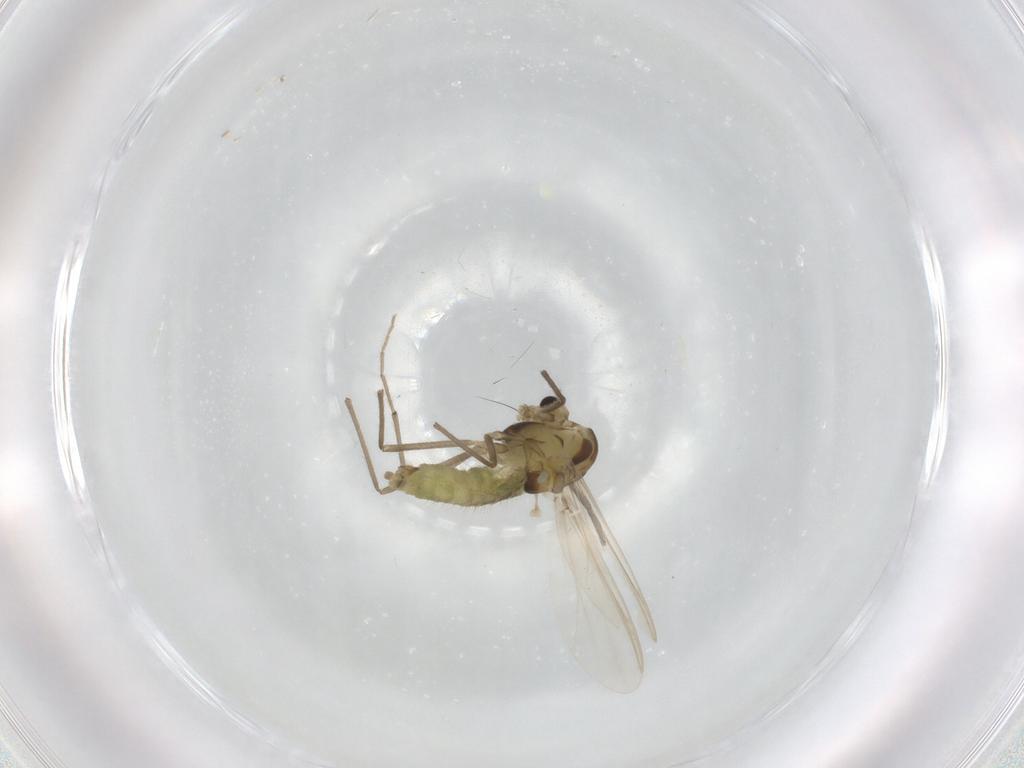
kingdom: Animalia
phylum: Arthropoda
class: Insecta
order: Diptera
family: Chironomidae
